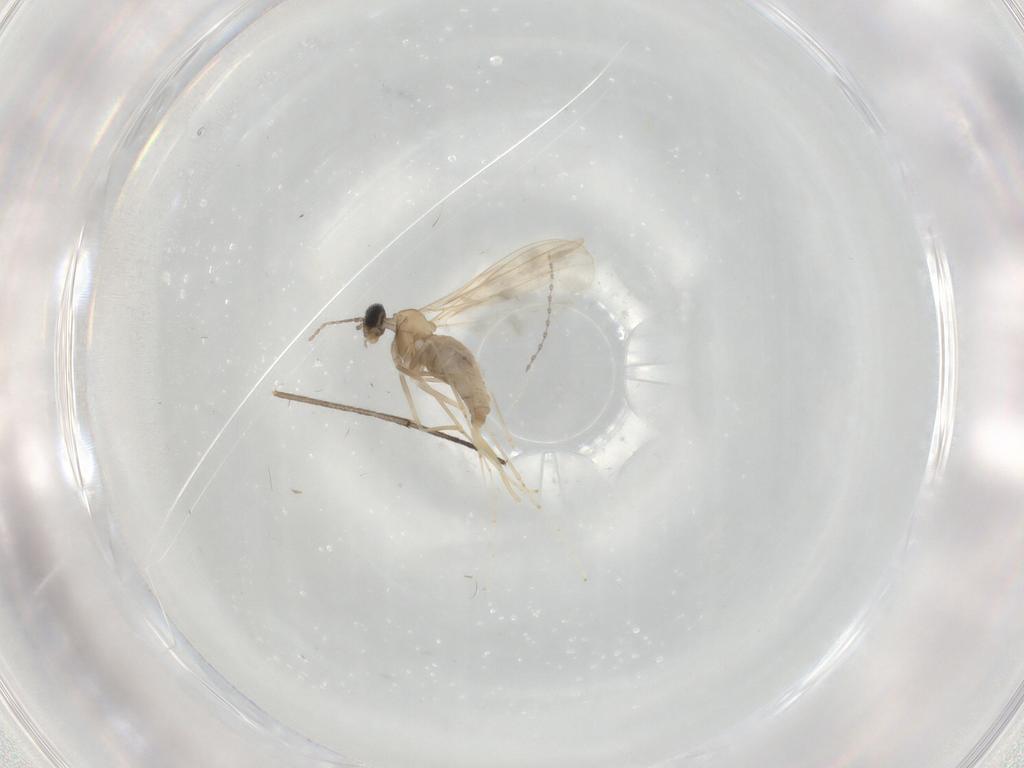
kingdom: Animalia
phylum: Arthropoda
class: Insecta
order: Diptera
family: Cecidomyiidae
